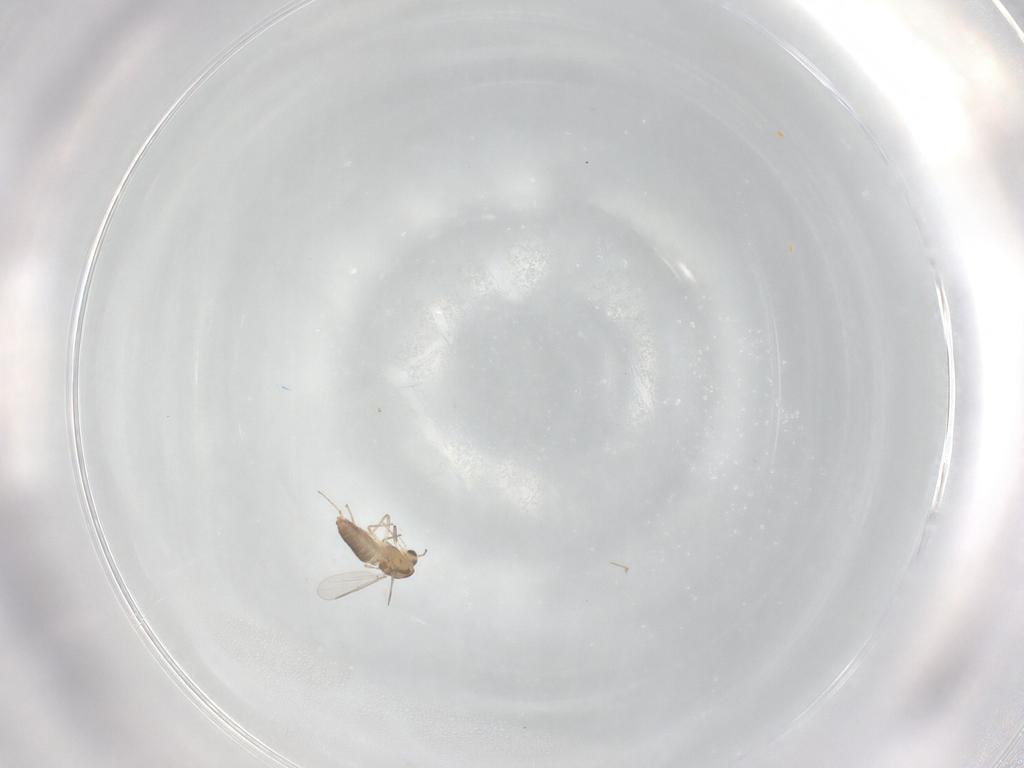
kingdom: Animalia
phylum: Arthropoda
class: Insecta
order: Diptera
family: Chironomidae
